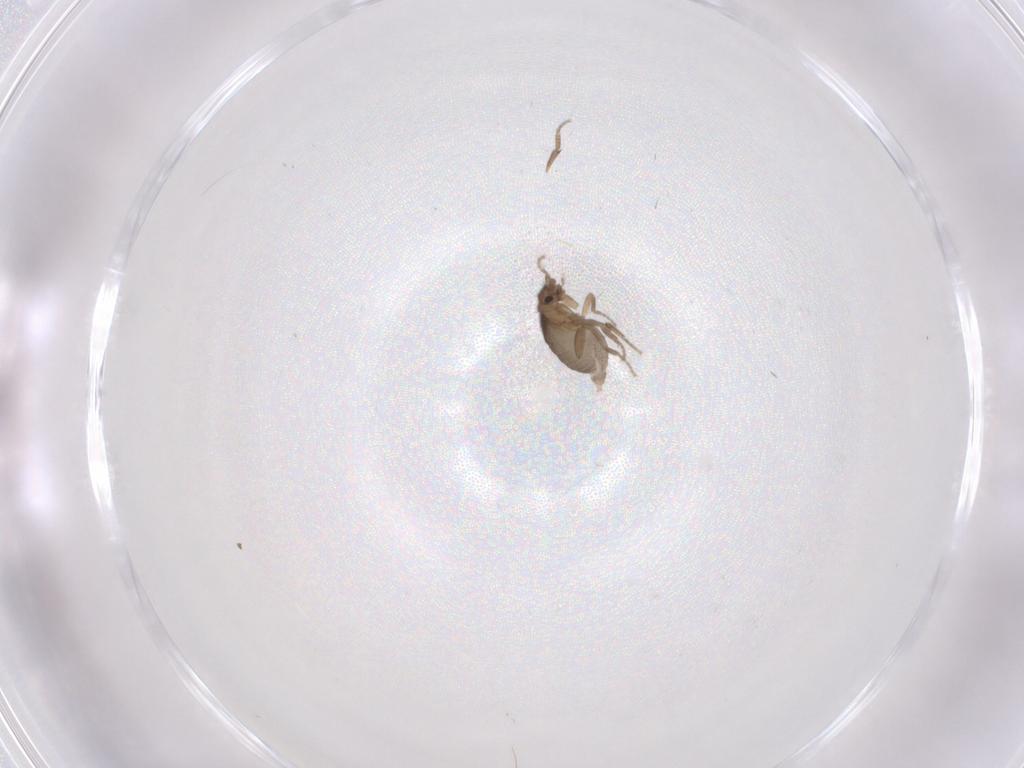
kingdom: Animalia
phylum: Arthropoda
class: Insecta
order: Diptera
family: Phoridae
